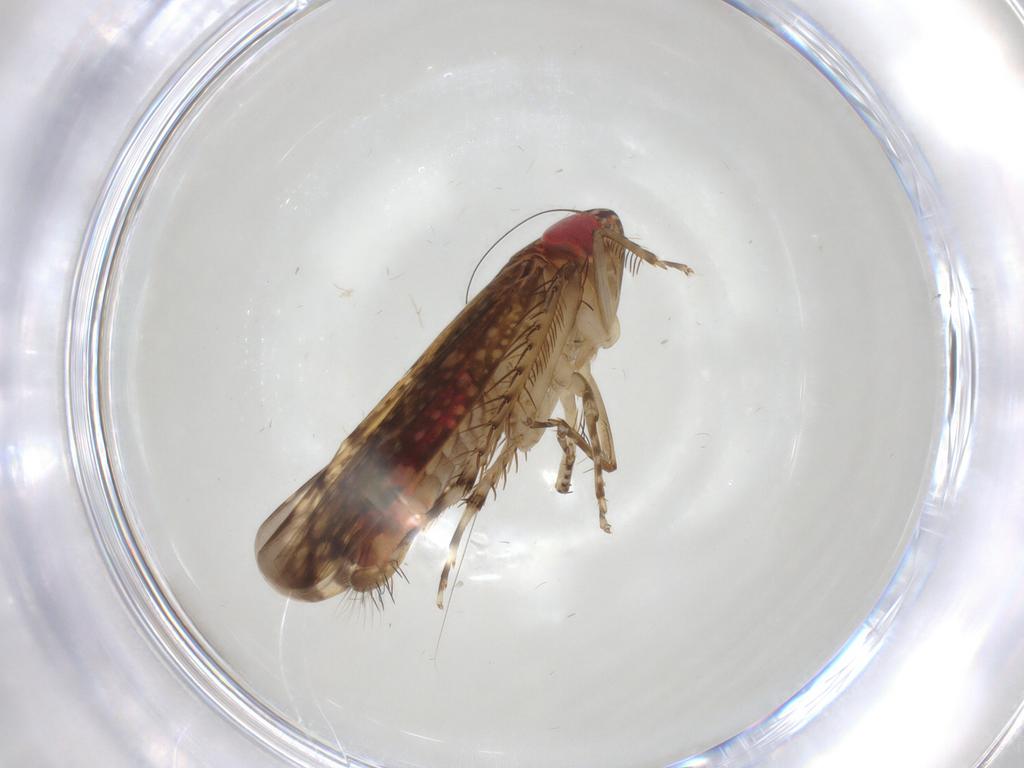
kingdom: Animalia
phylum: Arthropoda
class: Insecta
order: Hemiptera
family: Cicadellidae
